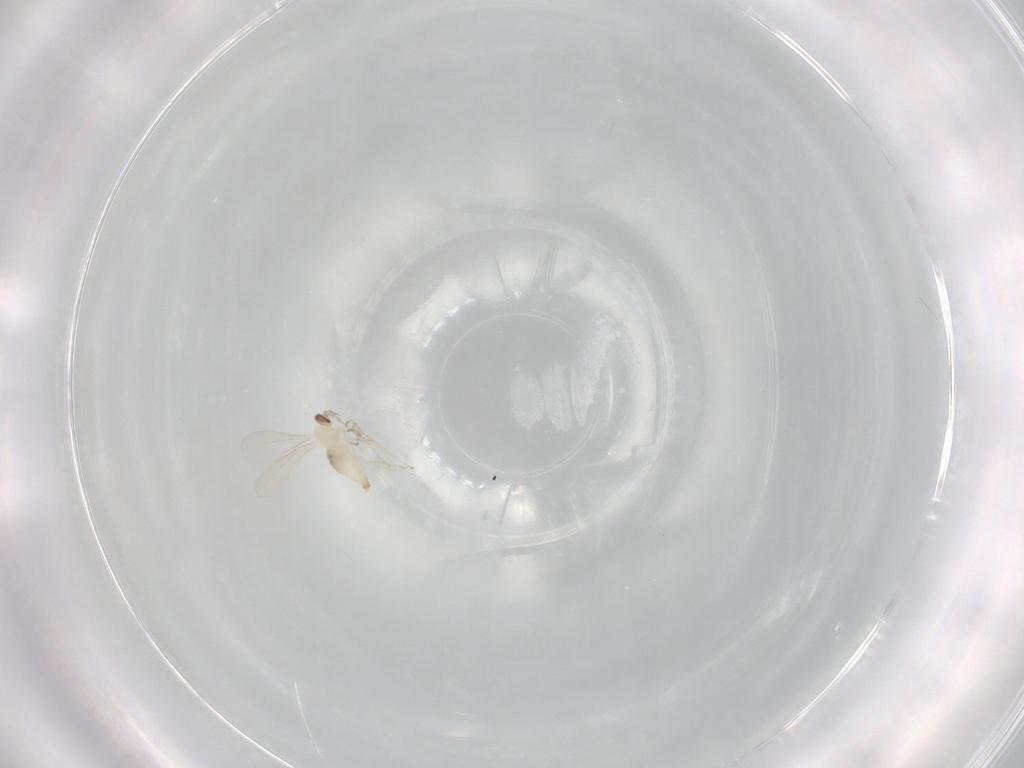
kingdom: Animalia
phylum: Arthropoda
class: Insecta
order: Diptera
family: Cecidomyiidae
